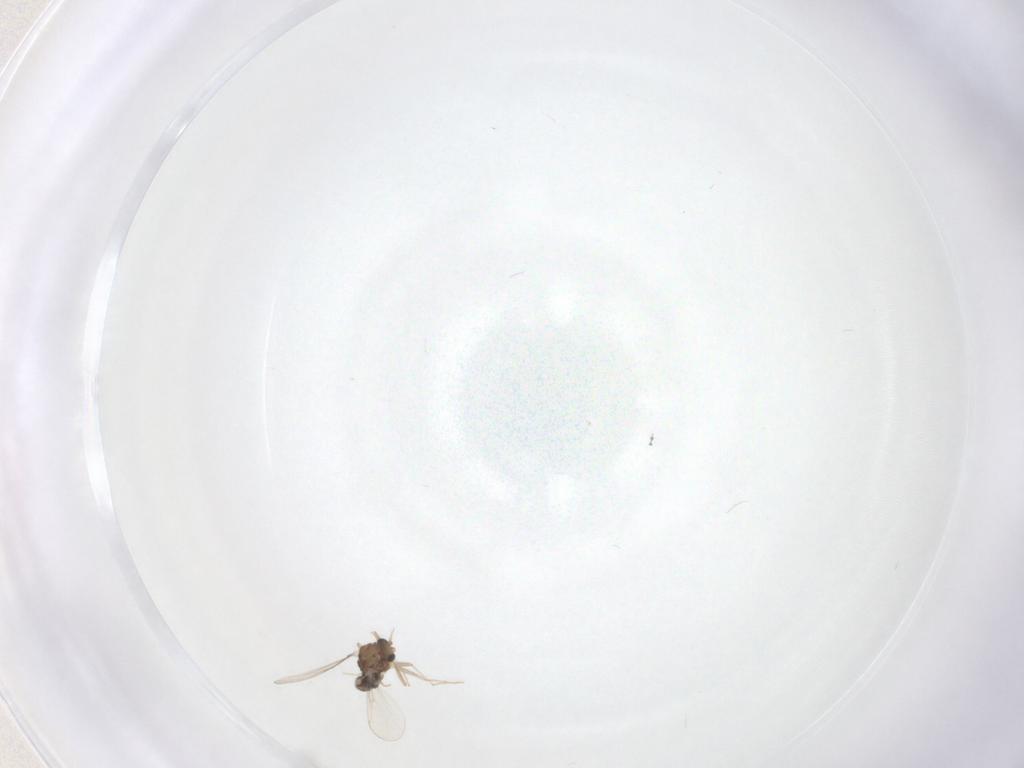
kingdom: Animalia
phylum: Arthropoda
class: Insecta
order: Diptera
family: Chironomidae
